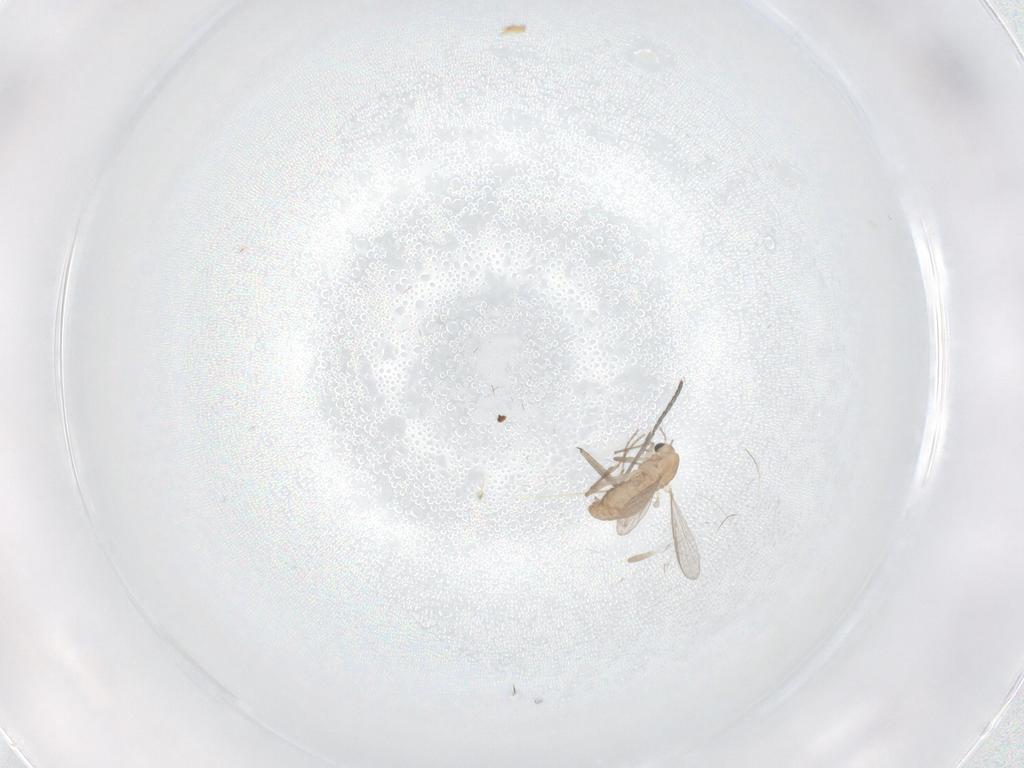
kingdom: Animalia
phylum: Arthropoda
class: Insecta
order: Diptera
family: Chironomidae
